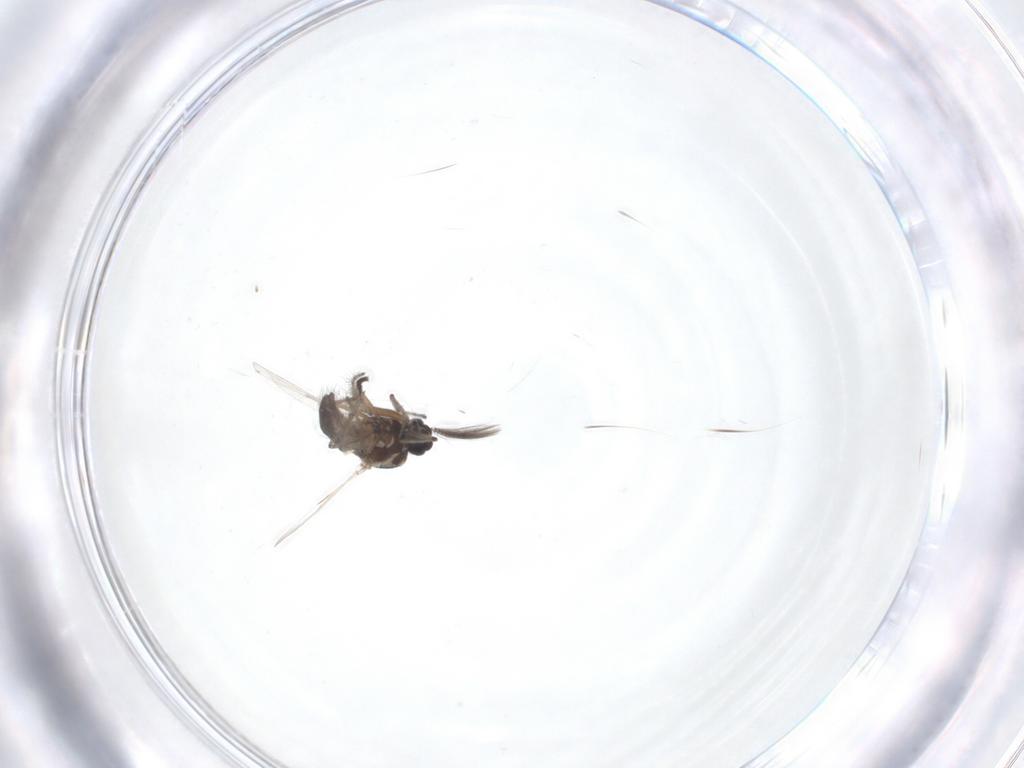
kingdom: Animalia
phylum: Arthropoda
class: Insecta
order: Diptera
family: Ceratopogonidae
